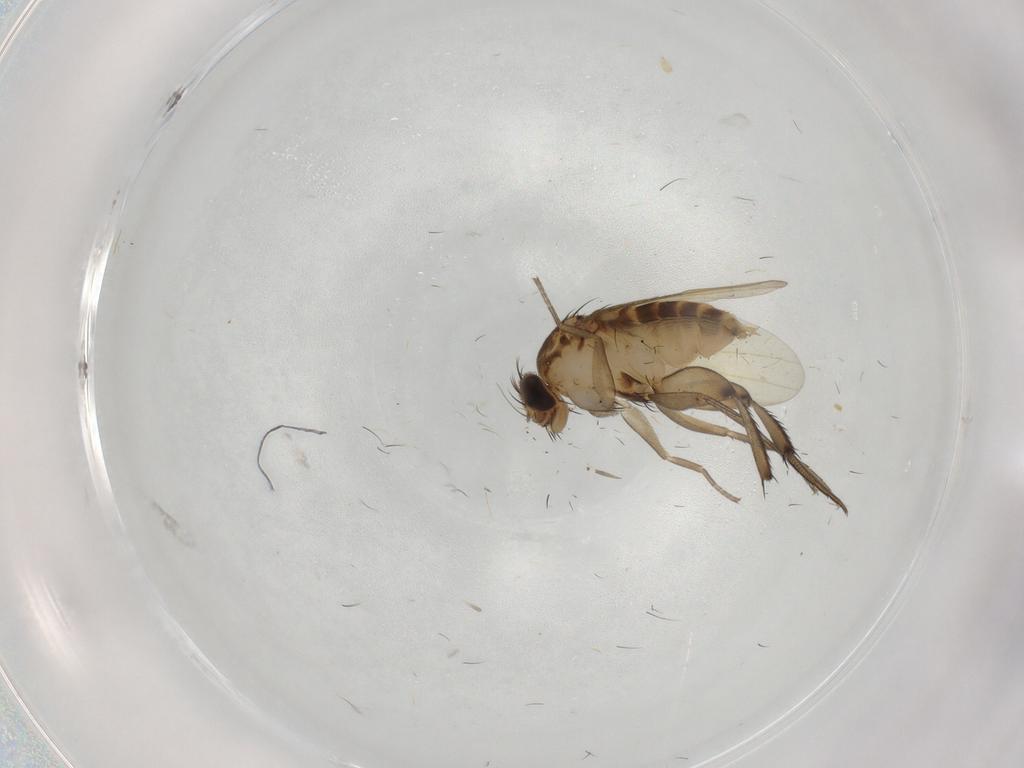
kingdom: Animalia
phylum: Arthropoda
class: Insecta
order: Diptera
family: Phoridae
